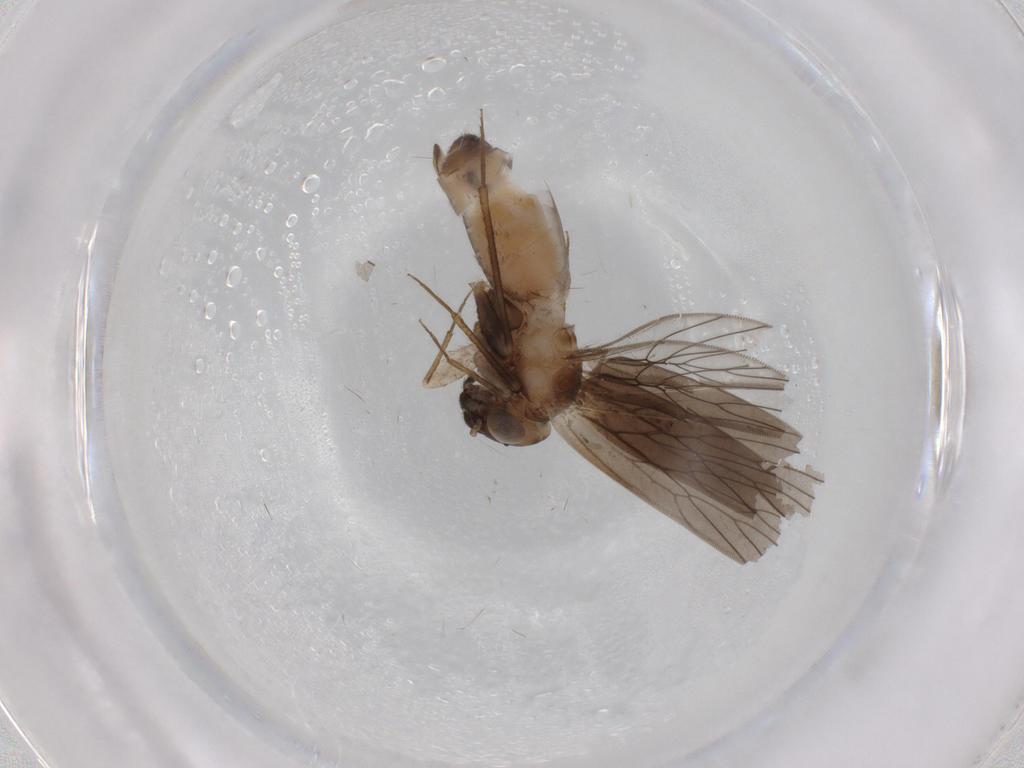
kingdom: Animalia
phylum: Arthropoda
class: Insecta
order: Psocodea
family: Lepidopsocidae
